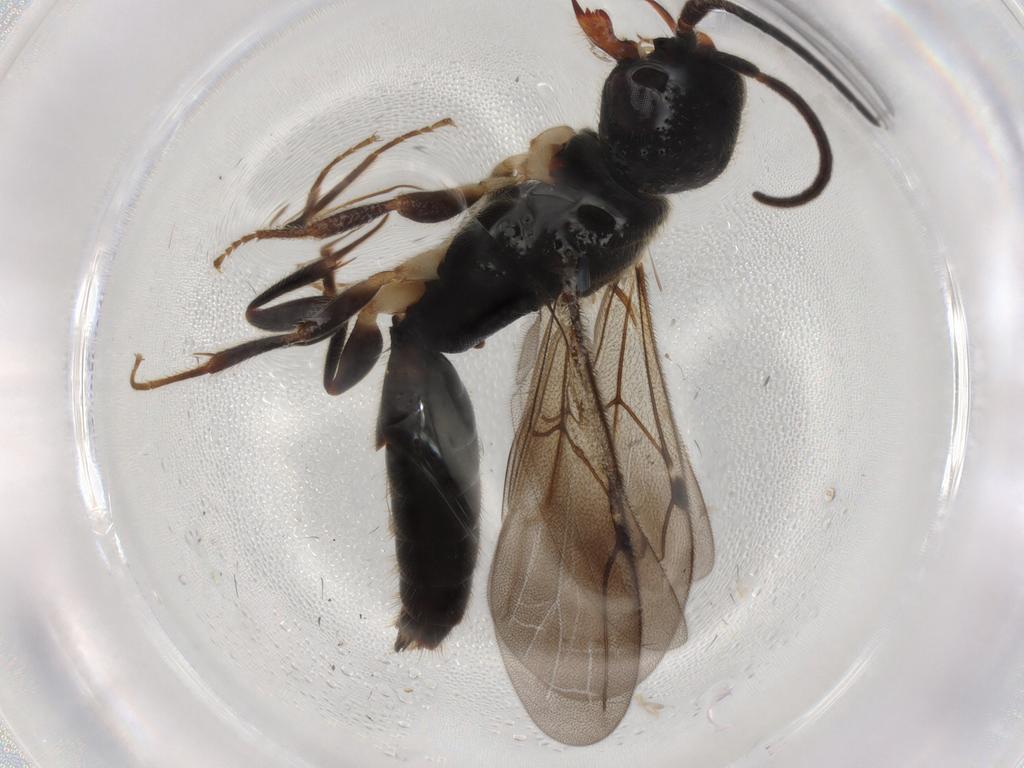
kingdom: Animalia
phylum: Arthropoda
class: Insecta
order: Hymenoptera
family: Bethylidae
